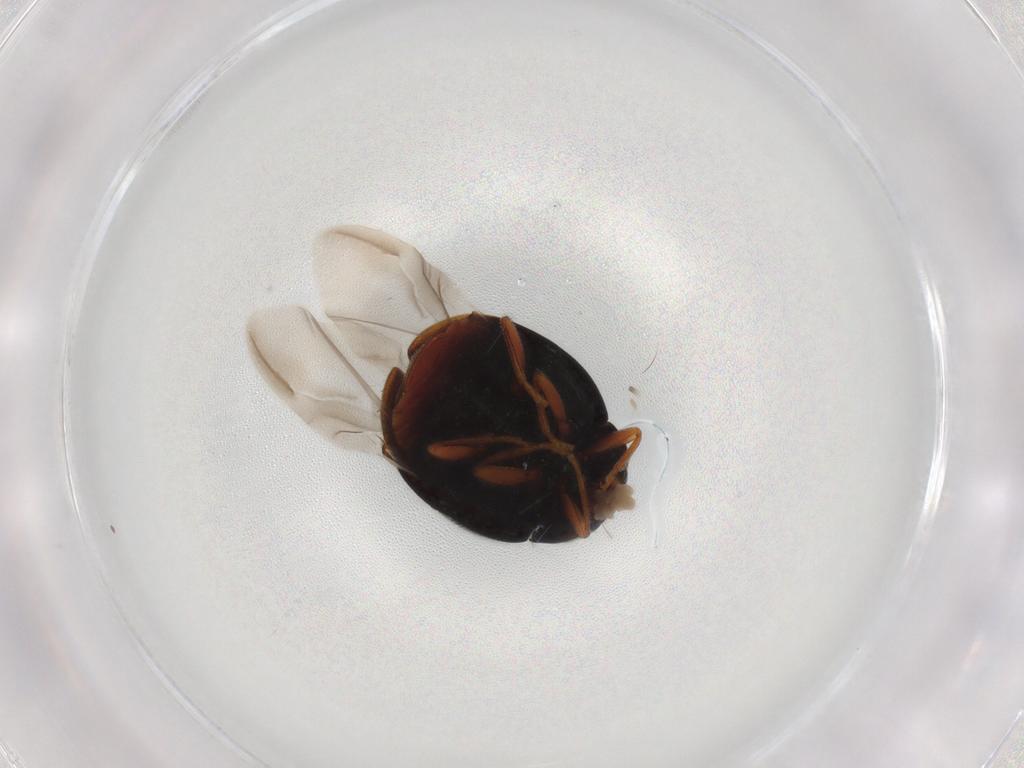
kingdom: Animalia
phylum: Arthropoda
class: Insecta
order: Coleoptera
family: Coccinellidae
